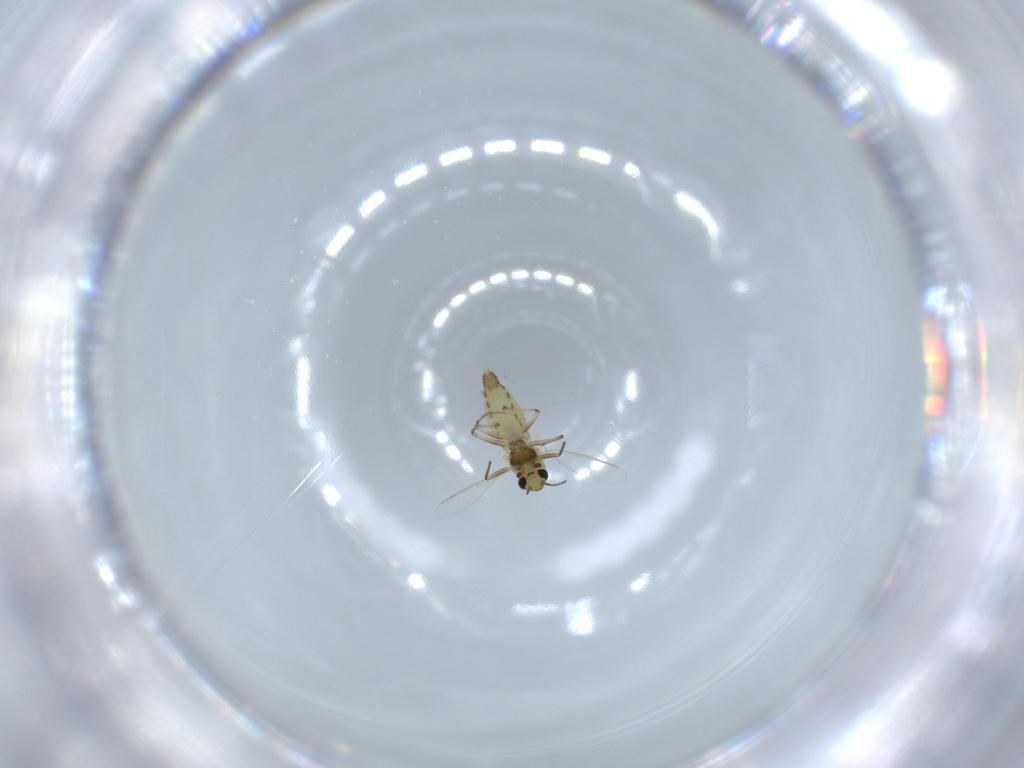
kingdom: Animalia
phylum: Arthropoda
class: Insecta
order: Diptera
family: Chironomidae
